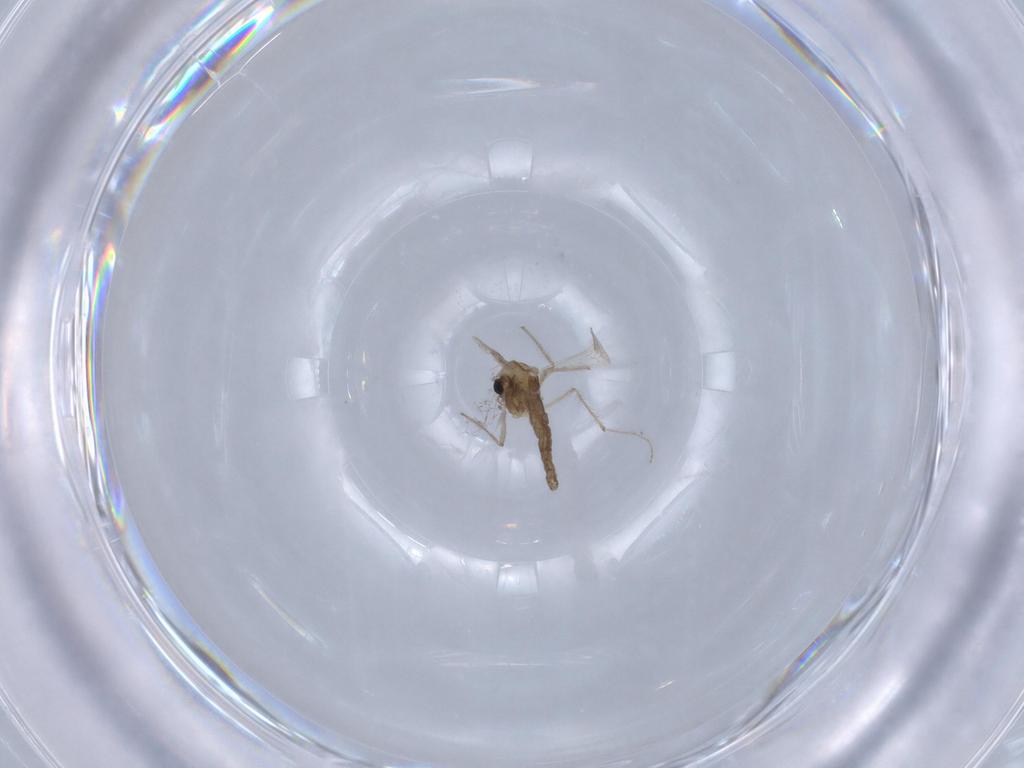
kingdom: Animalia
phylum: Arthropoda
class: Insecta
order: Diptera
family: Chironomidae
